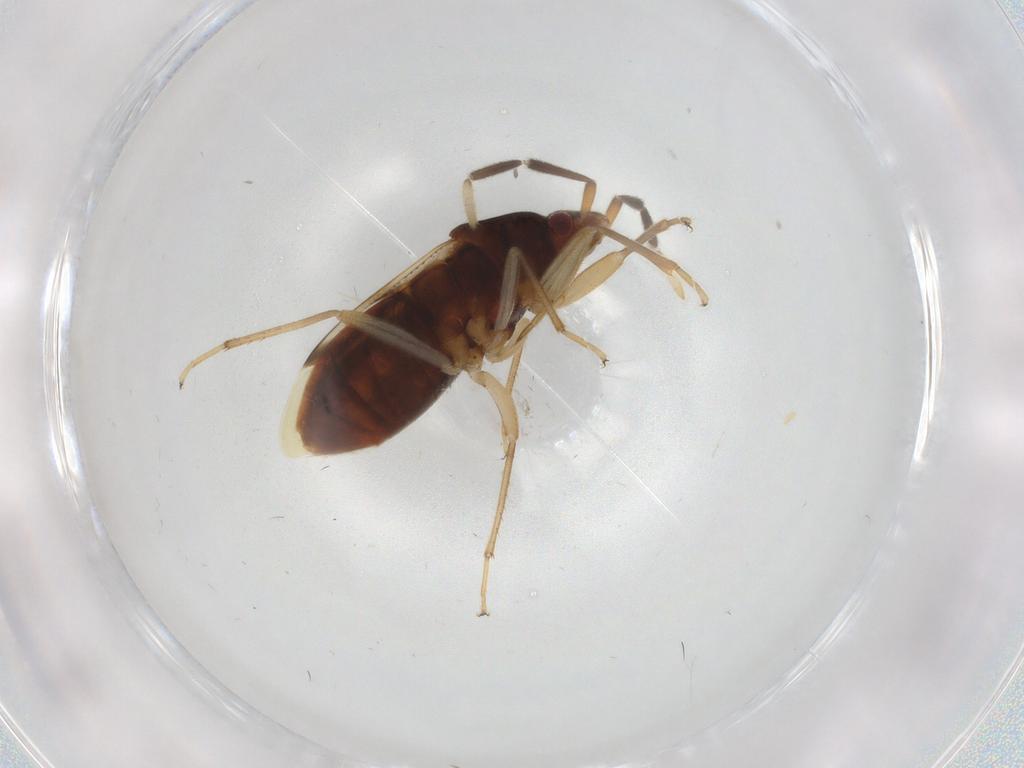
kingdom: Animalia
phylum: Arthropoda
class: Insecta
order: Hemiptera
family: Rhyparochromidae
